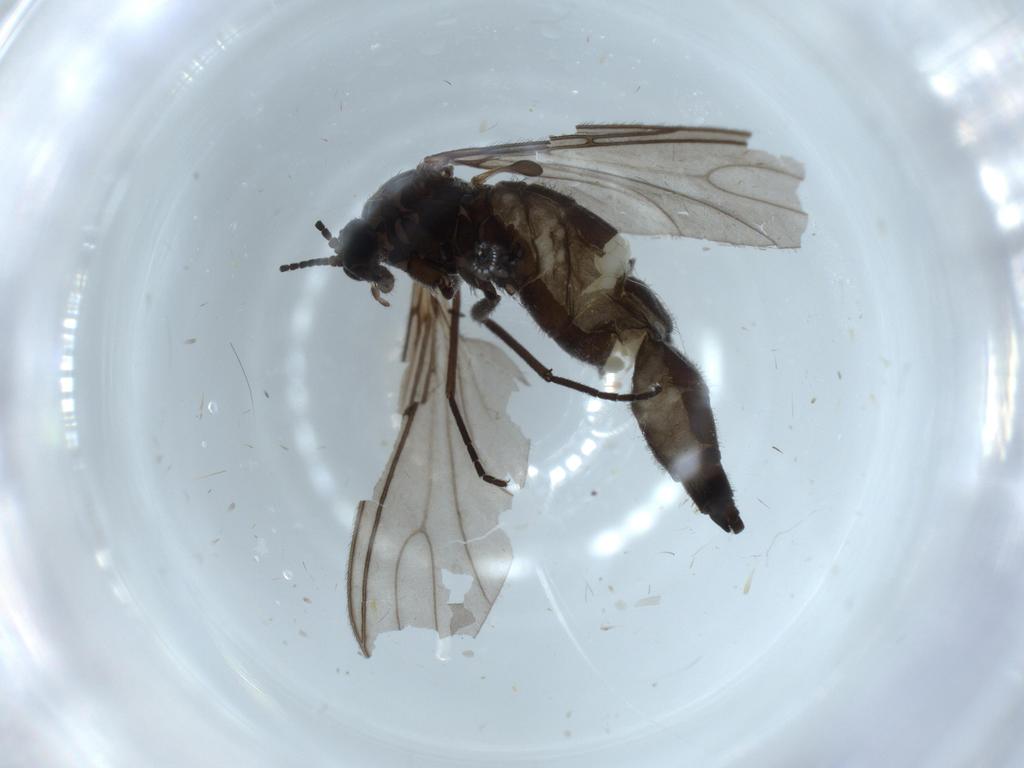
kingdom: Animalia
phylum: Arthropoda
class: Insecta
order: Diptera
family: Sciaridae
